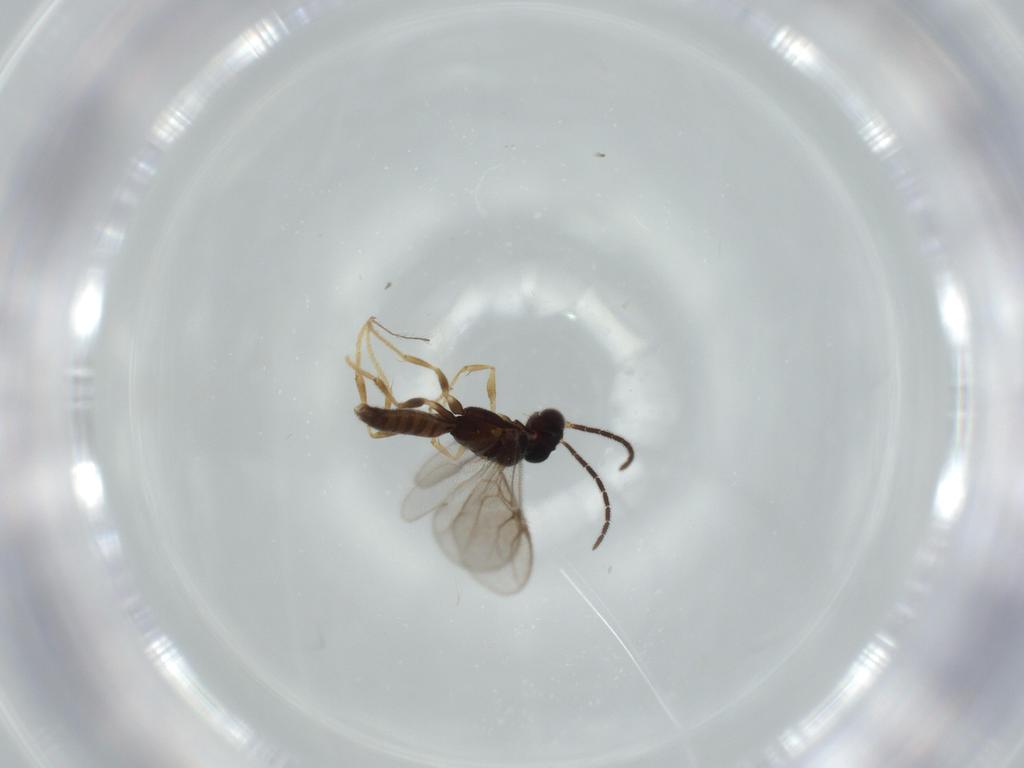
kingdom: Animalia
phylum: Arthropoda
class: Insecta
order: Hymenoptera
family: Dryinidae
